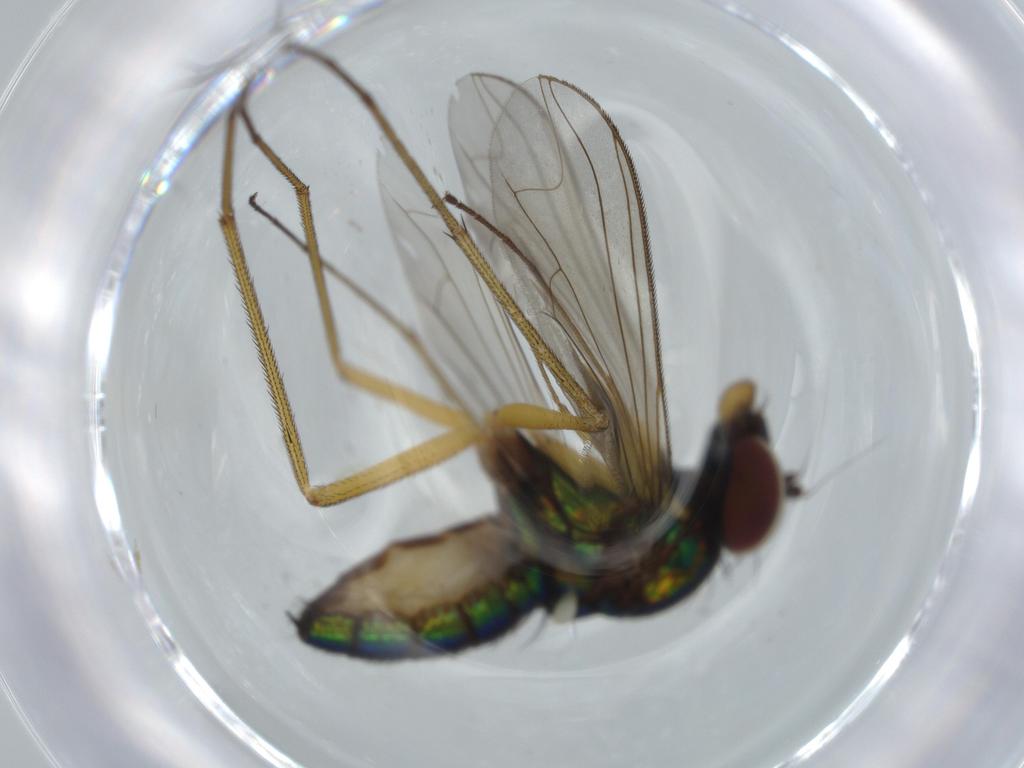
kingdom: Animalia
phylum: Arthropoda
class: Insecta
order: Diptera
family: Dolichopodidae
